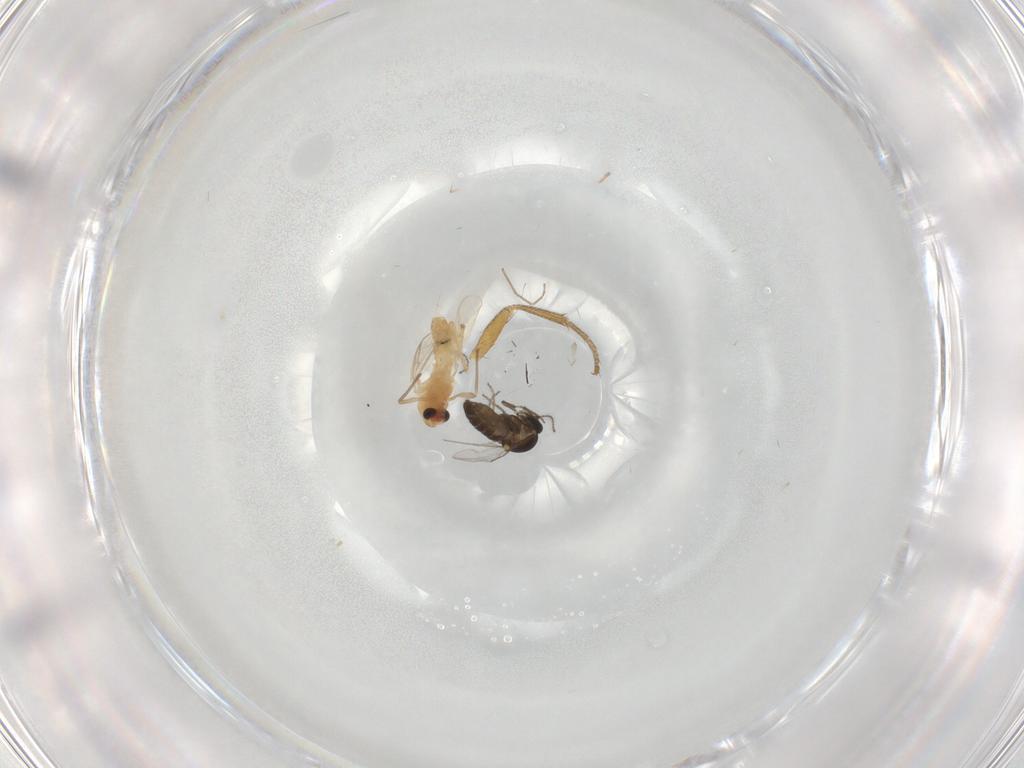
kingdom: Animalia
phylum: Arthropoda
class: Insecta
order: Diptera
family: Ceratopogonidae
